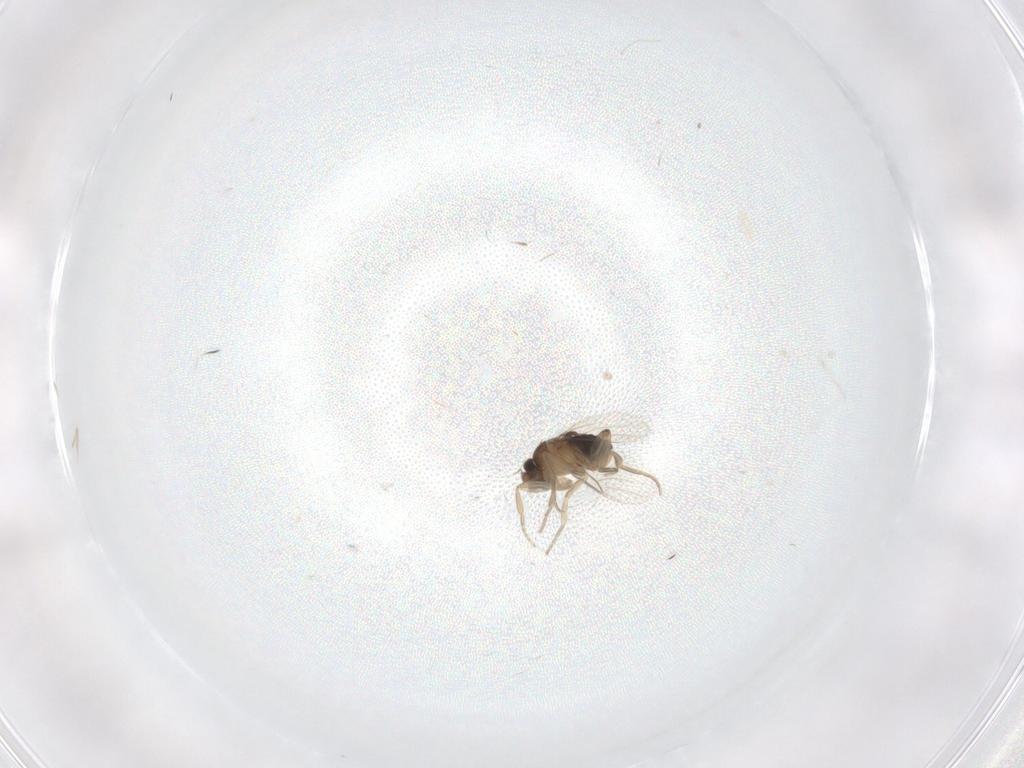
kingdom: Animalia
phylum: Arthropoda
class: Insecta
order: Diptera
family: Phoridae
